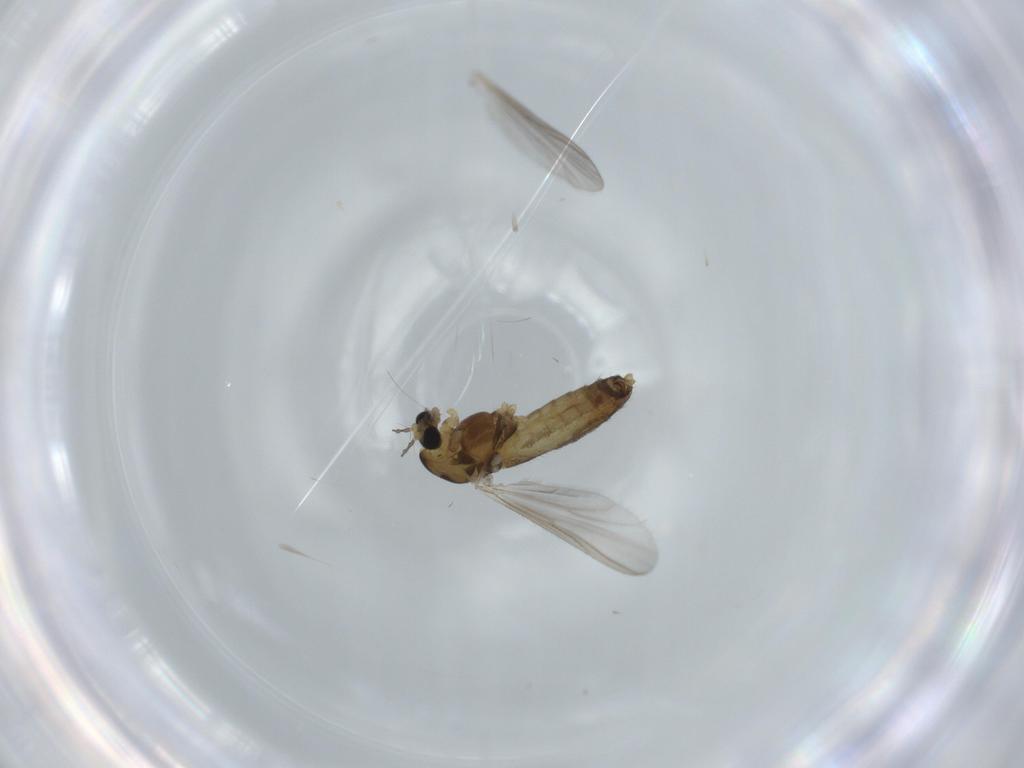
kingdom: Animalia
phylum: Arthropoda
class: Insecta
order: Diptera
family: Chironomidae
